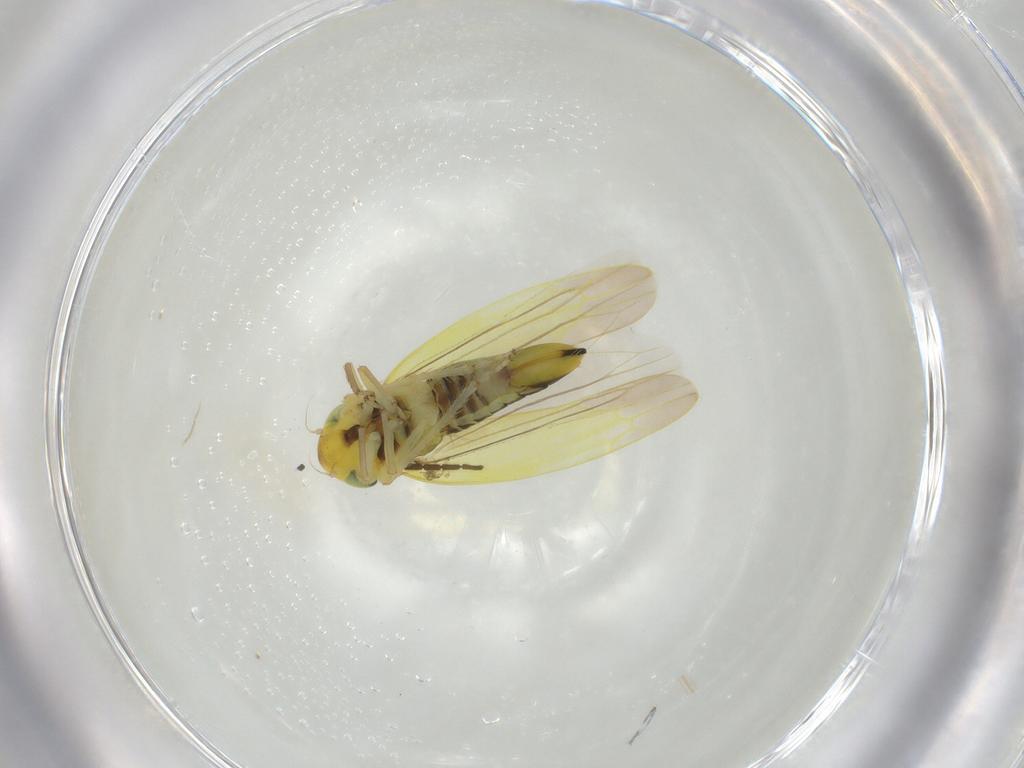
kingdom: Animalia
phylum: Arthropoda
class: Insecta
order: Hemiptera
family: Cicadellidae
